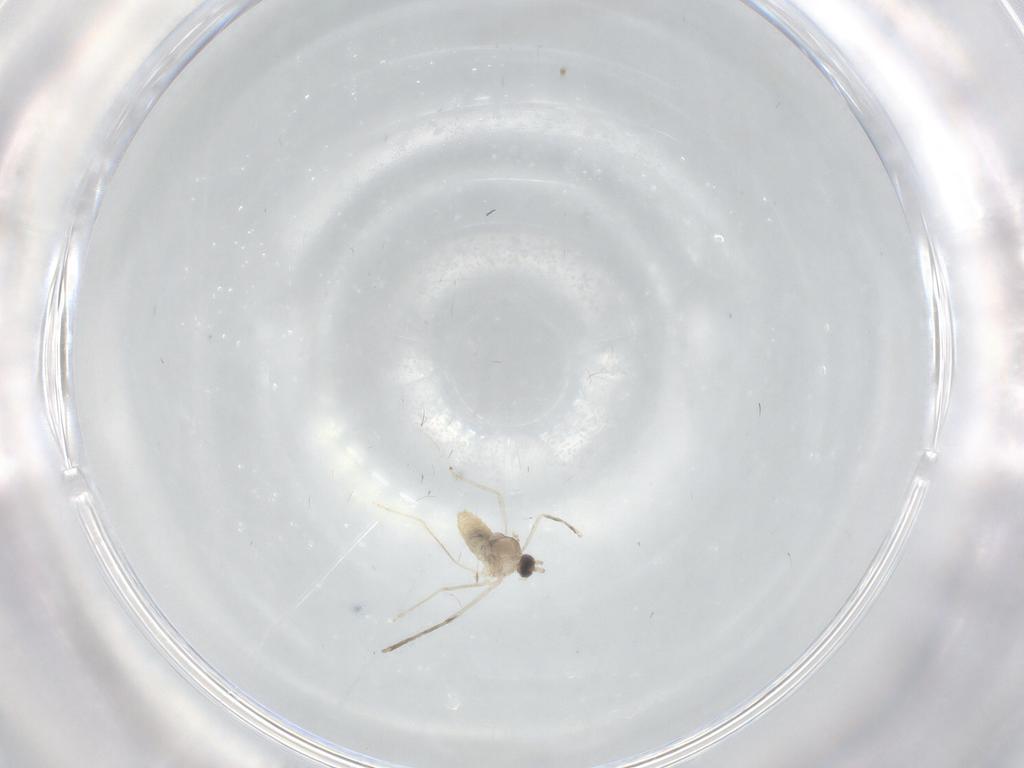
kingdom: Animalia
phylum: Arthropoda
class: Insecta
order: Diptera
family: Cecidomyiidae
